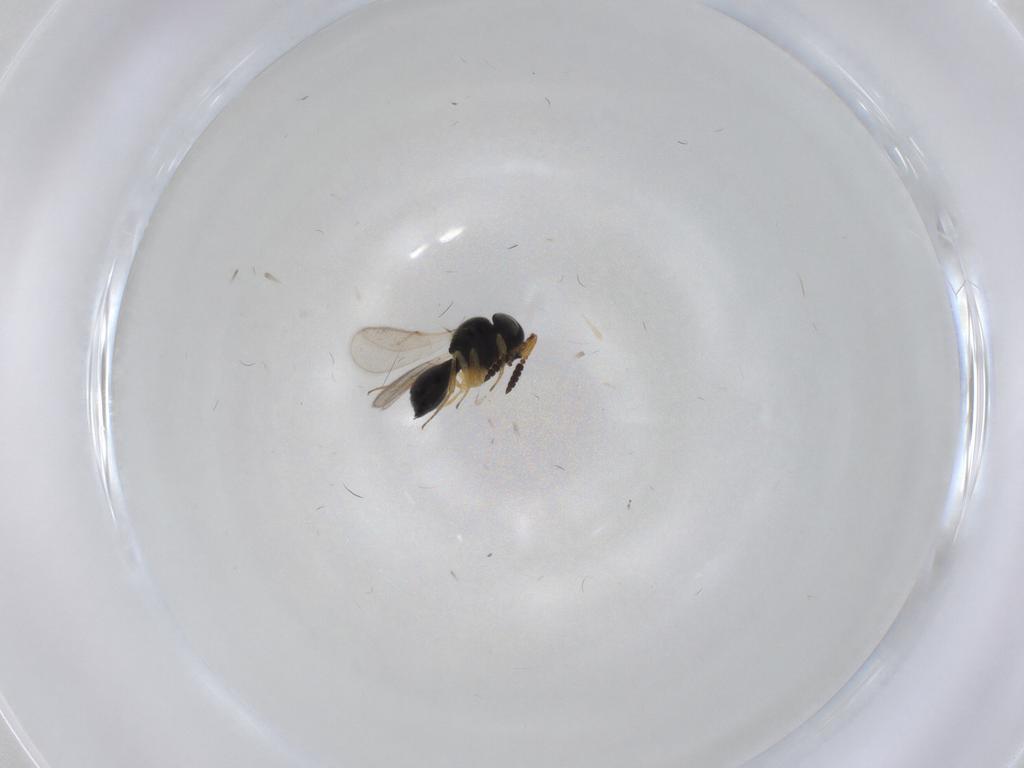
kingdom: Animalia
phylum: Arthropoda
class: Insecta
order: Hymenoptera
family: Scelionidae
